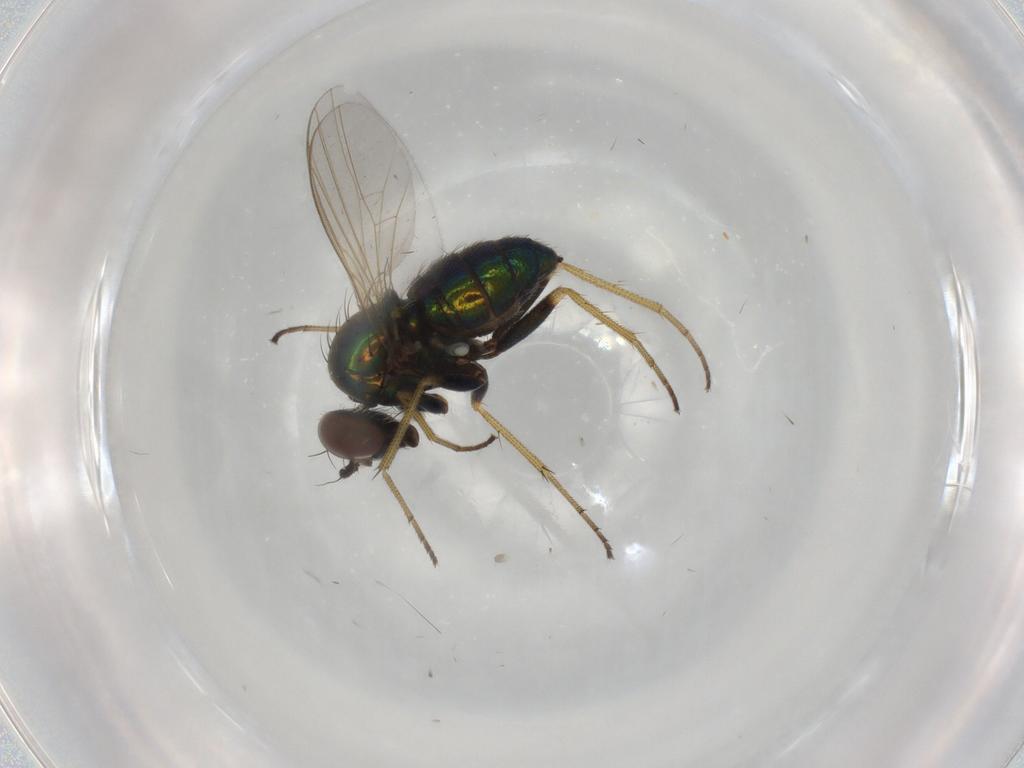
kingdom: Animalia
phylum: Arthropoda
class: Insecta
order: Diptera
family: Dolichopodidae
